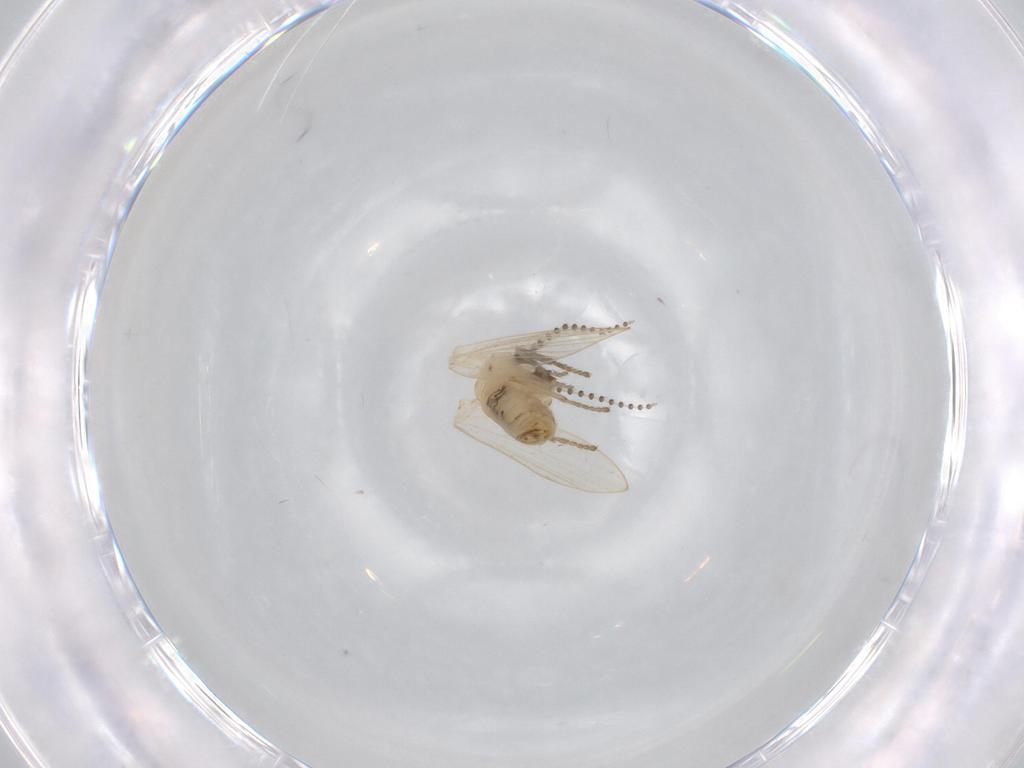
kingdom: Animalia
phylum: Arthropoda
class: Insecta
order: Diptera
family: Psychodidae
